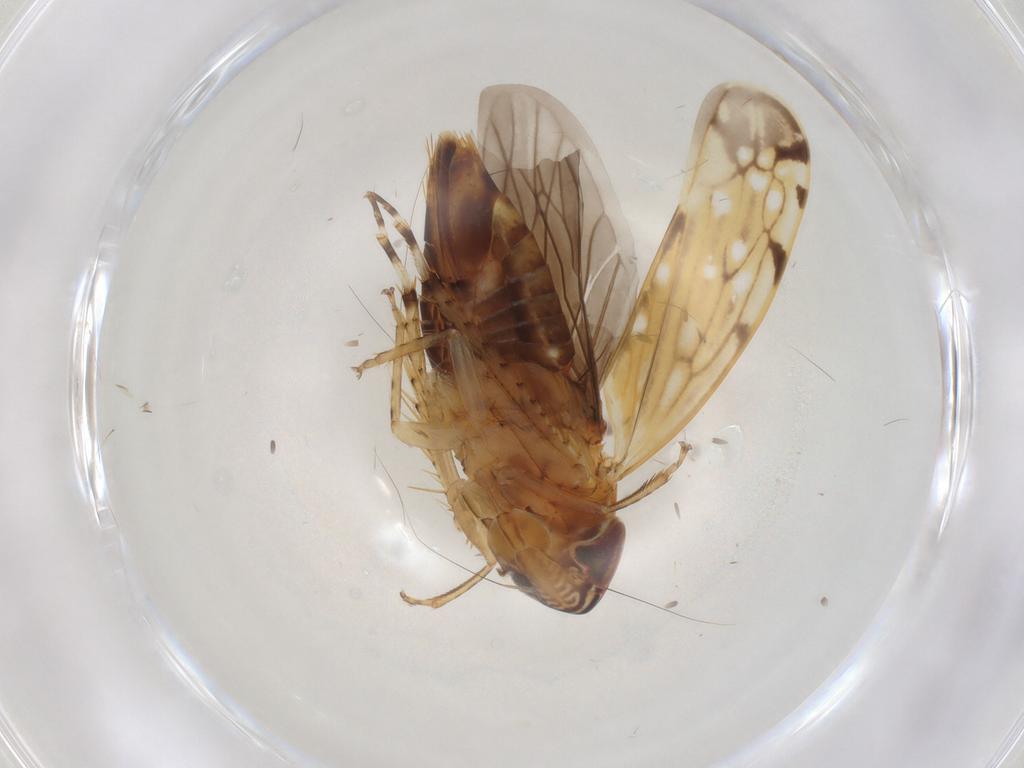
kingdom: Animalia
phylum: Arthropoda
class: Insecta
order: Hemiptera
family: Cicadellidae
